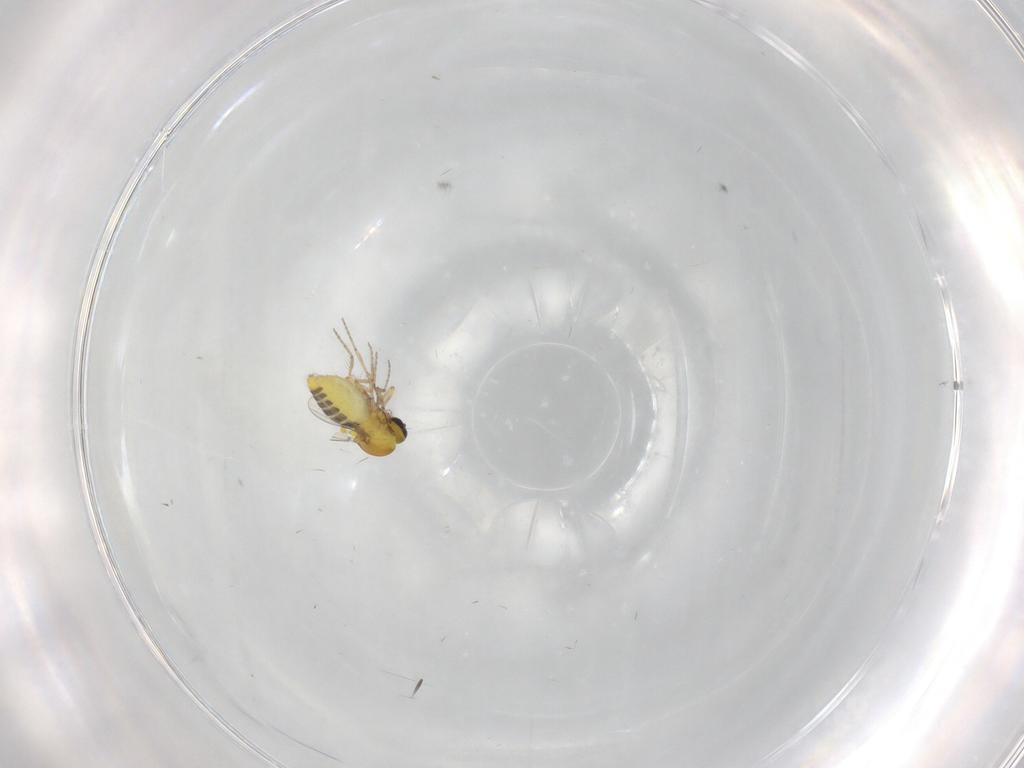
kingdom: Animalia
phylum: Arthropoda
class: Insecta
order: Diptera
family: Phoridae
